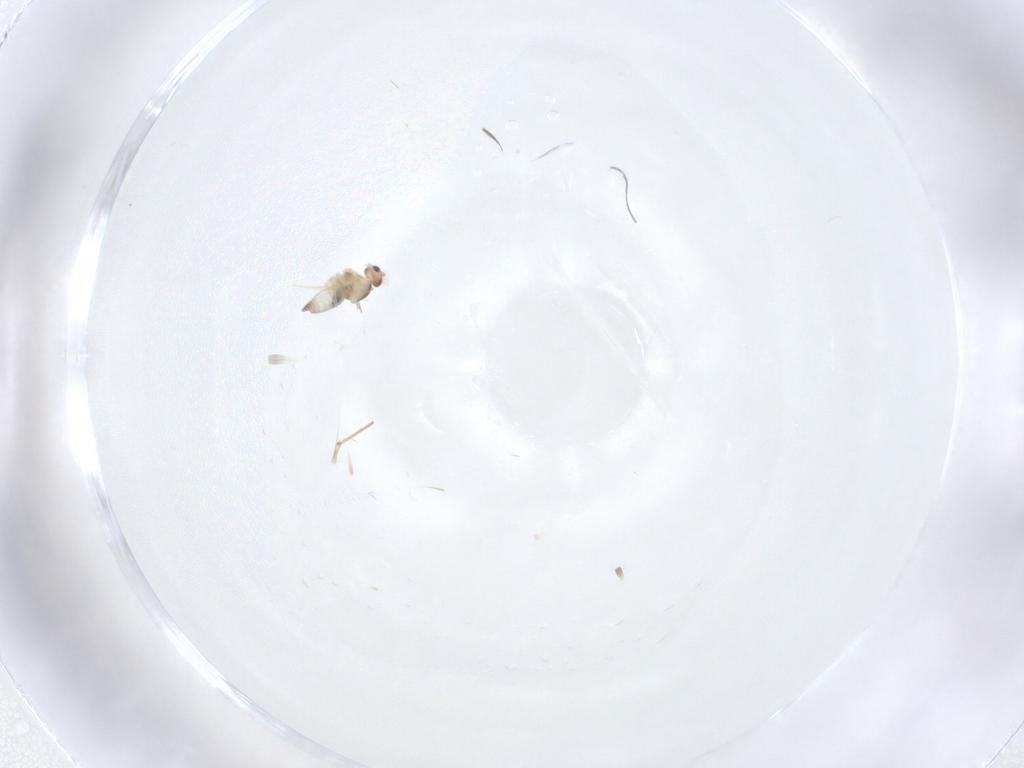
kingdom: Animalia
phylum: Arthropoda
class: Insecta
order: Diptera
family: Cecidomyiidae
